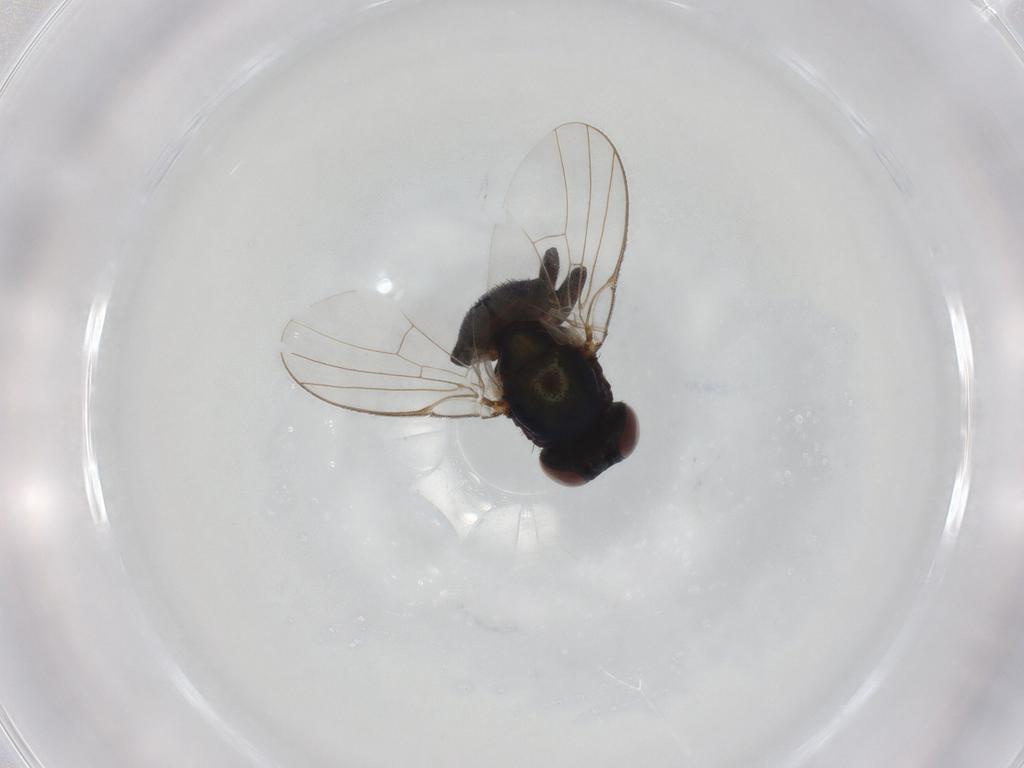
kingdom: Animalia
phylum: Arthropoda
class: Insecta
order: Diptera
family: Agromyzidae
